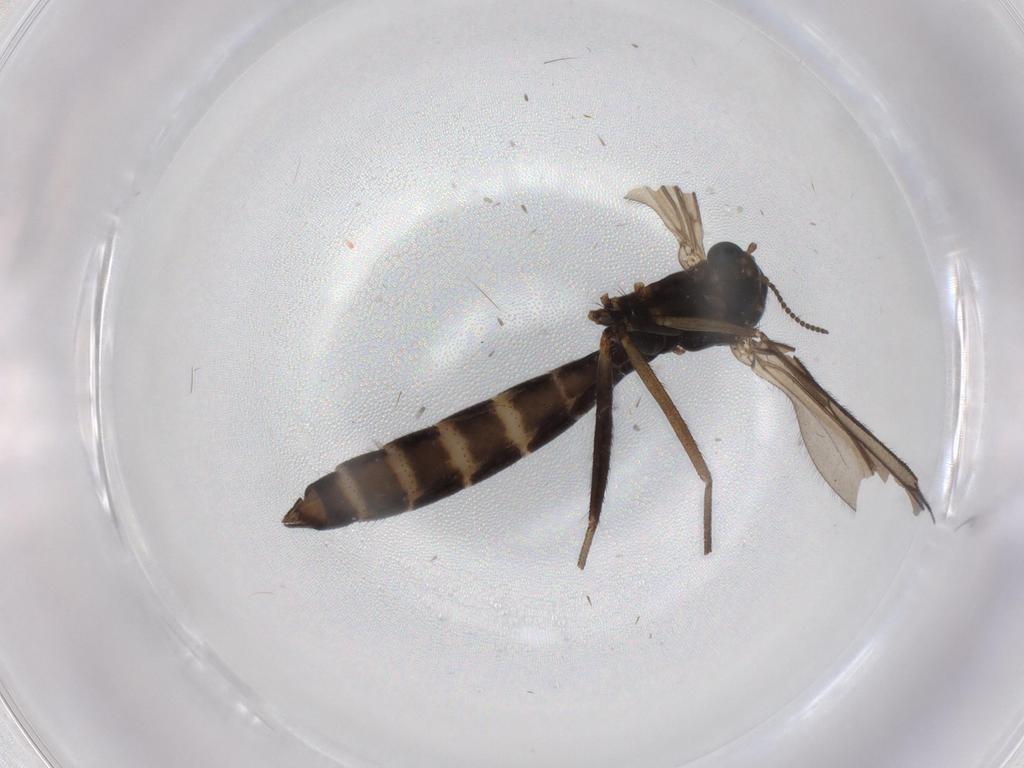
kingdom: Animalia
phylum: Arthropoda
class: Insecta
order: Diptera
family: Ditomyiidae
